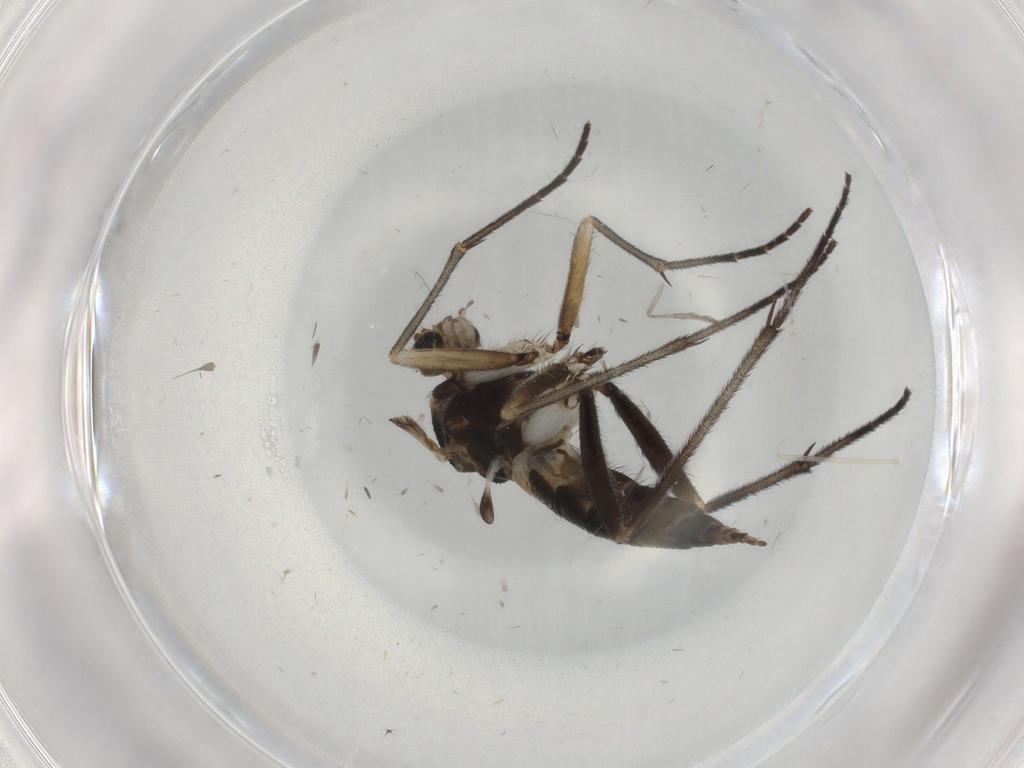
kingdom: Animalia
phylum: Arthropoda
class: Insecta
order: Diptera
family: Sciaridae
